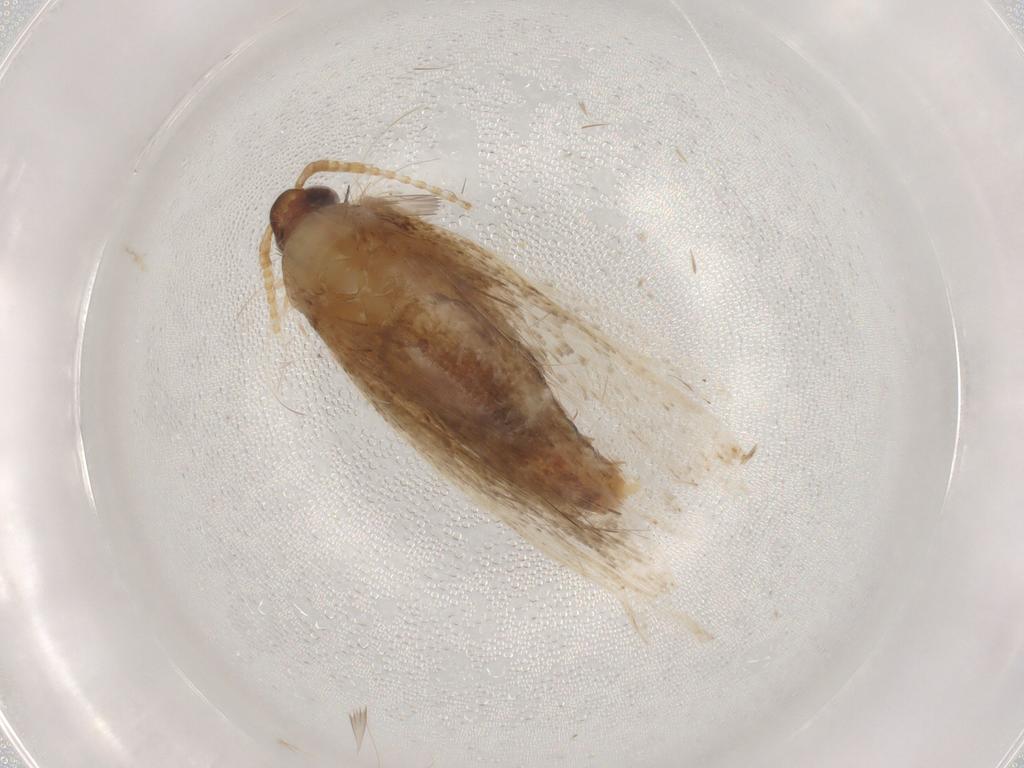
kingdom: Animalia
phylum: Arthropoda
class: Insecta
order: Lepidoptera
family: Lecithoceridae
